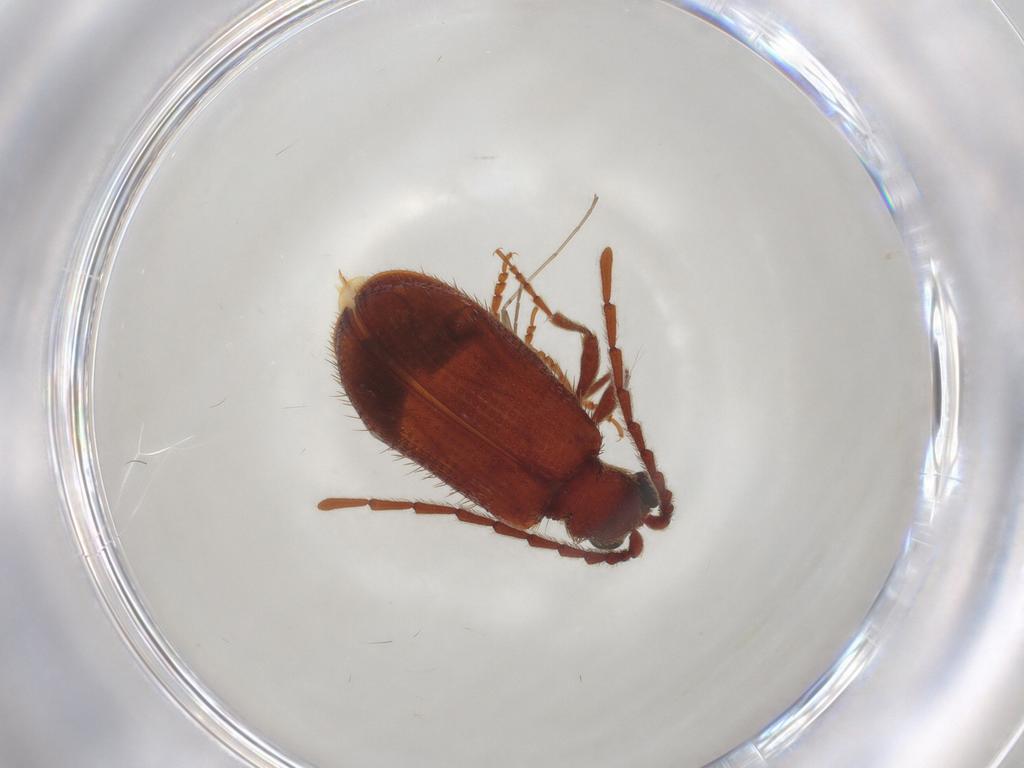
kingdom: Animalia
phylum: Arthropoda
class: Insecta
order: Coleoptera
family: Ptinidae
